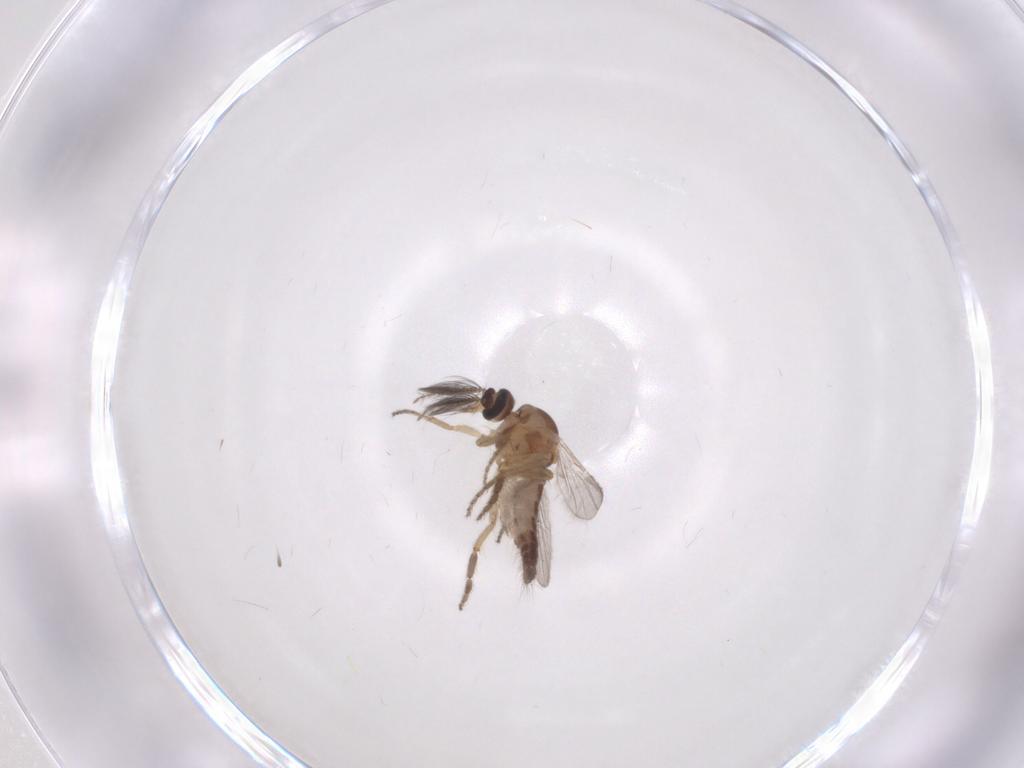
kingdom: Animalia
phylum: Arthropoda
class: Insecta
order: Diptera
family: Ceratopogonidae
